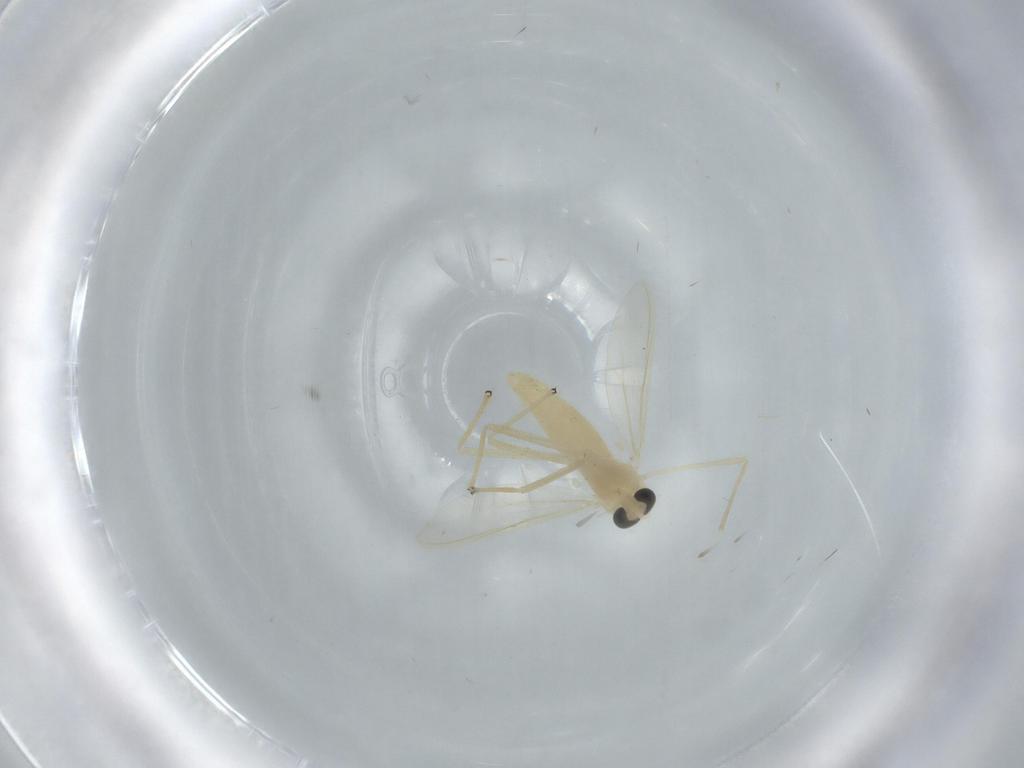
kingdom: Animalia
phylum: Arthropoda
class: Insecta
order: Diptera
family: Chironomidae
